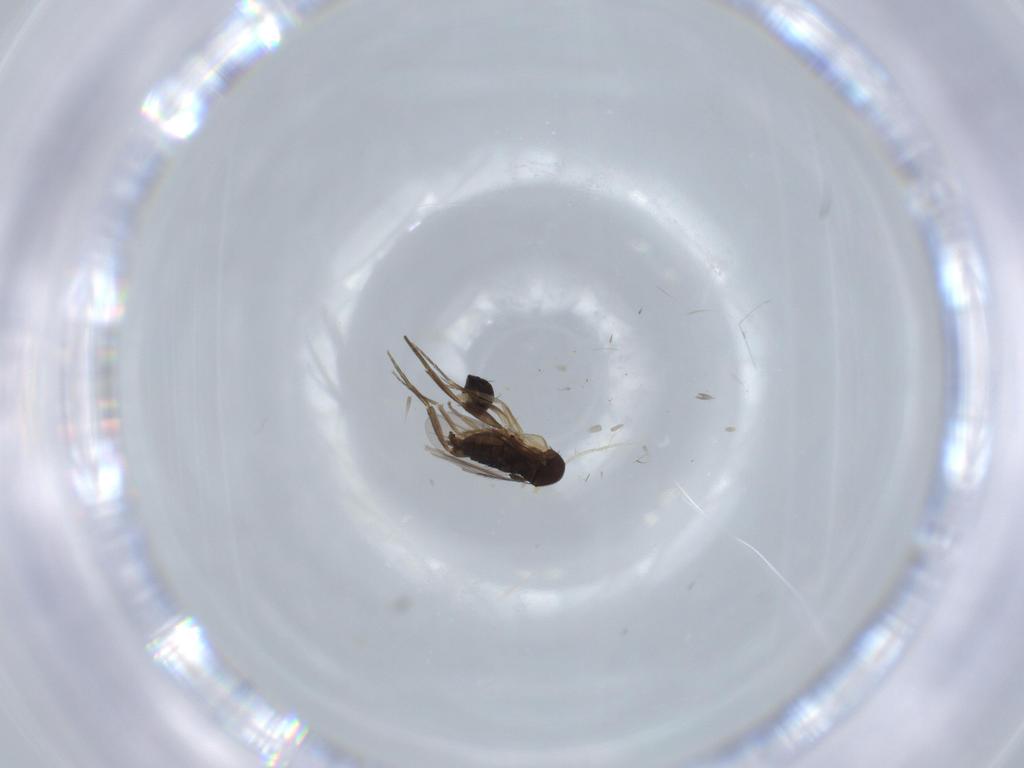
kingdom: Animalia
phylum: Arthropoda
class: Insecta
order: Diptera
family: Phoridae
